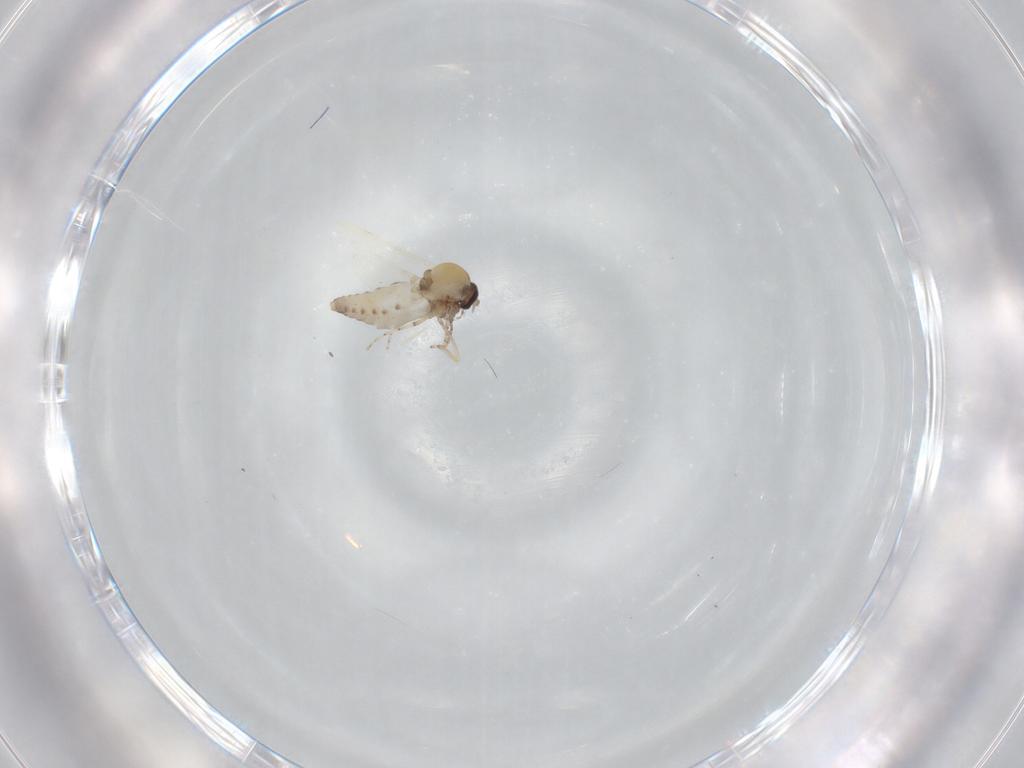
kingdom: Animalia
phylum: Arthropoda
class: Insecta
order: Diptera
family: Ceratopogonidae
